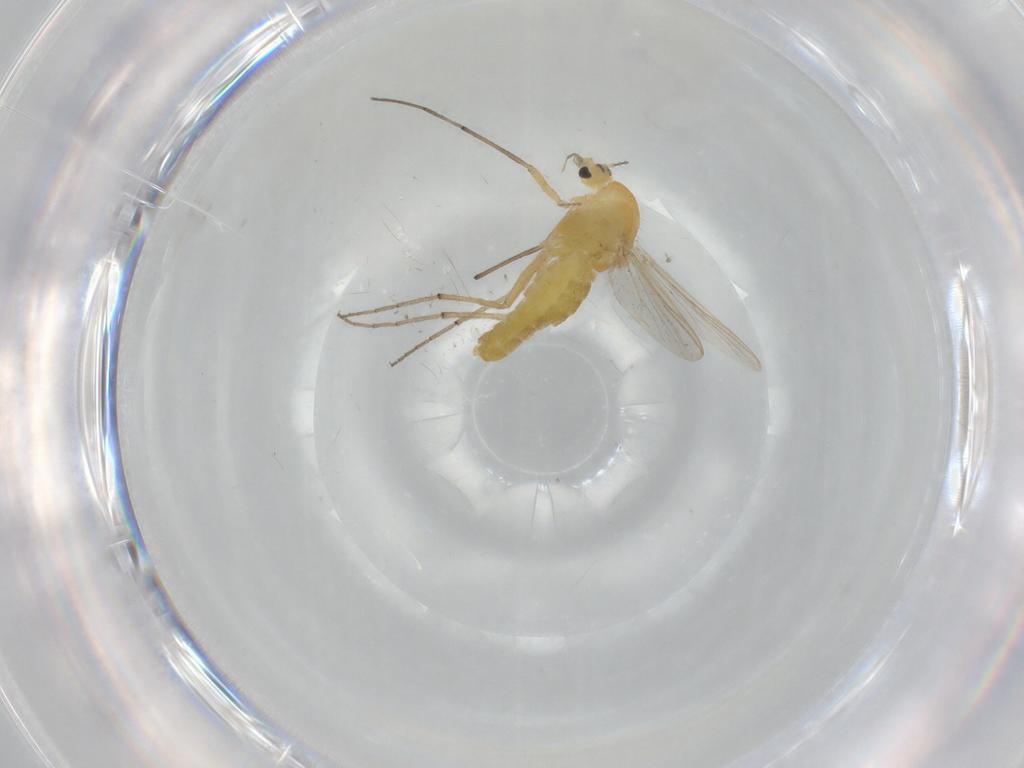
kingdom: Animalia
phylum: Arthropoda
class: Insecta
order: Diptera
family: Chironomidae
